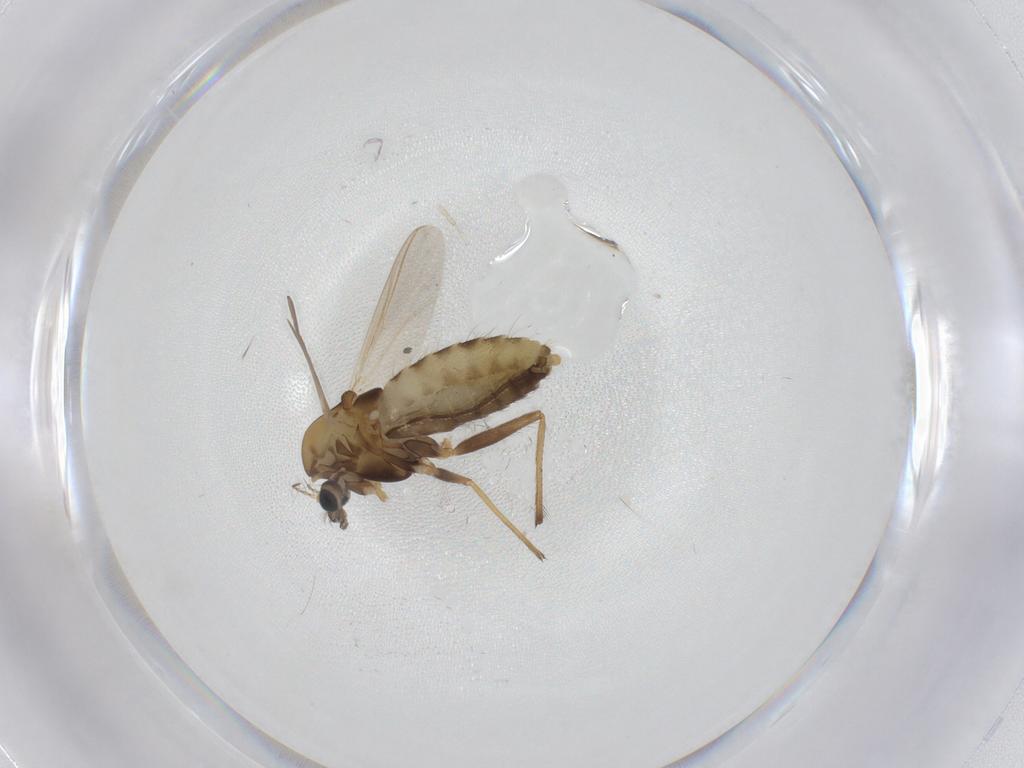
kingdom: Animalia
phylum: Arthropoda
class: Insecta
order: Diptera
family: Chironomidae
